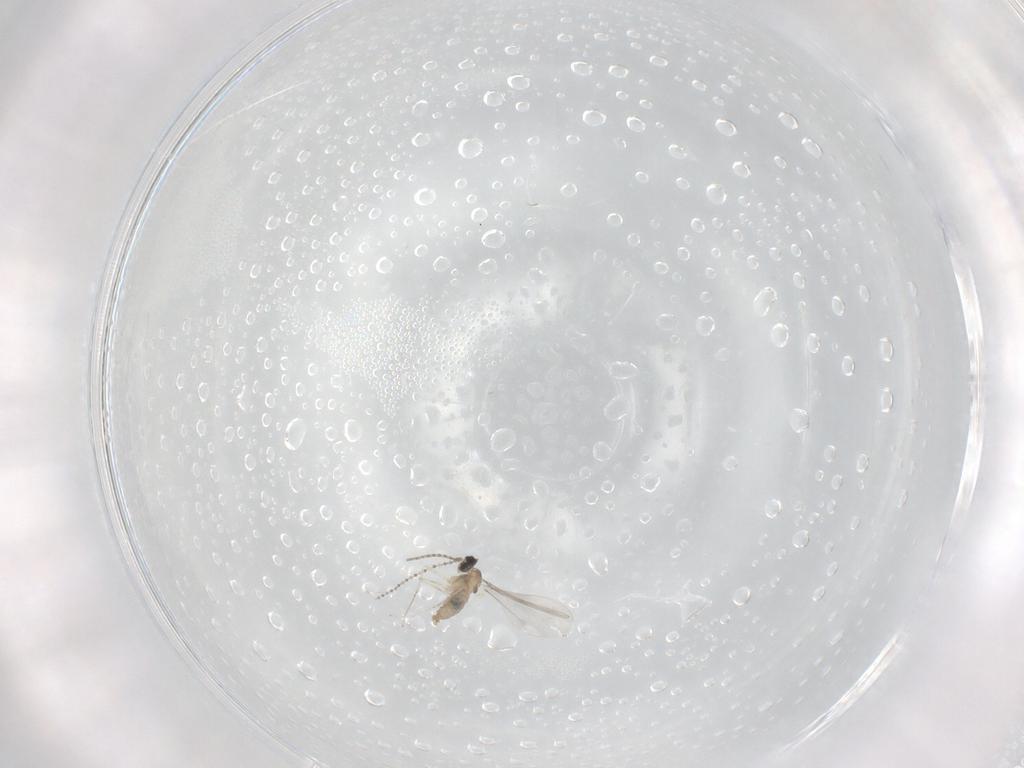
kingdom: Animalia
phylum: Arthropoda
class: Insecta
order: Diptera
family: Cecidomyiidae
